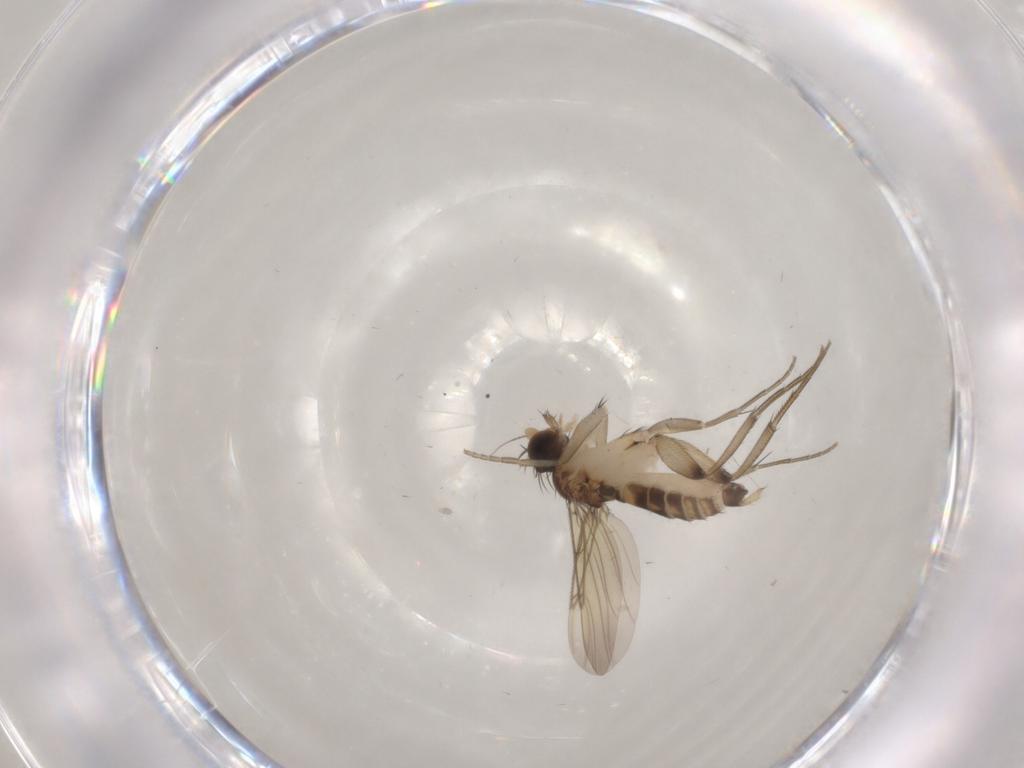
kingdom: Animalia
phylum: Arthropoda
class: Insecta
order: Diptera
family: Phoridae
